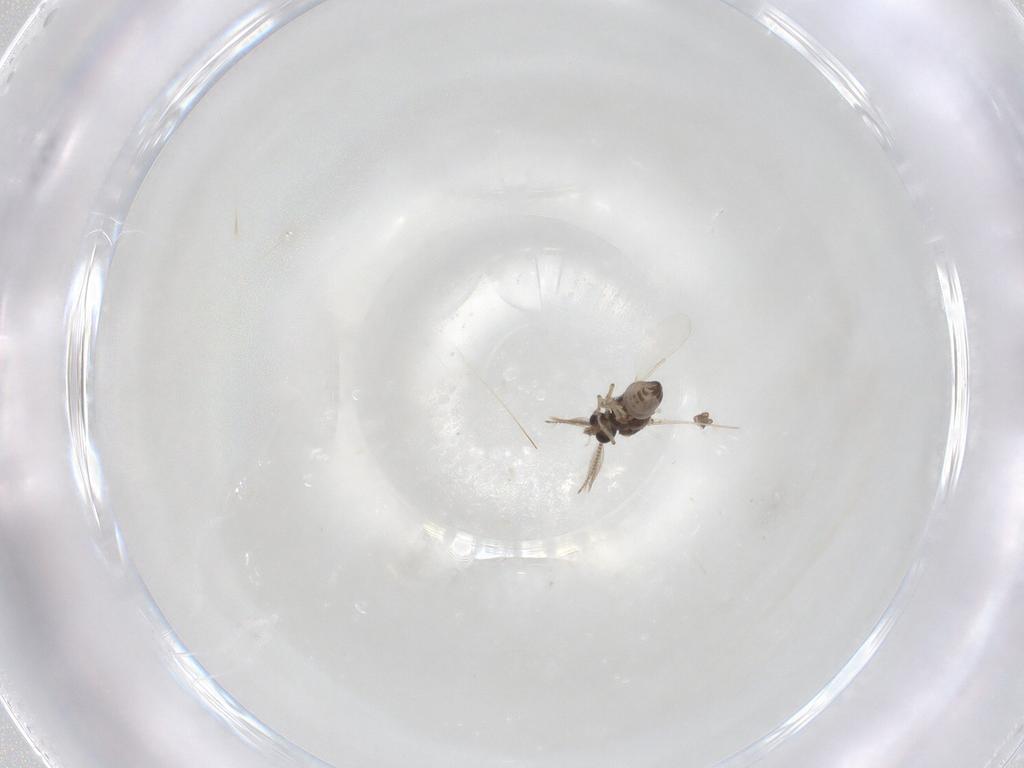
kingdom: Animalia
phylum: Arthropoda
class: Insecta
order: Diptera
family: Ceratopogonidae
